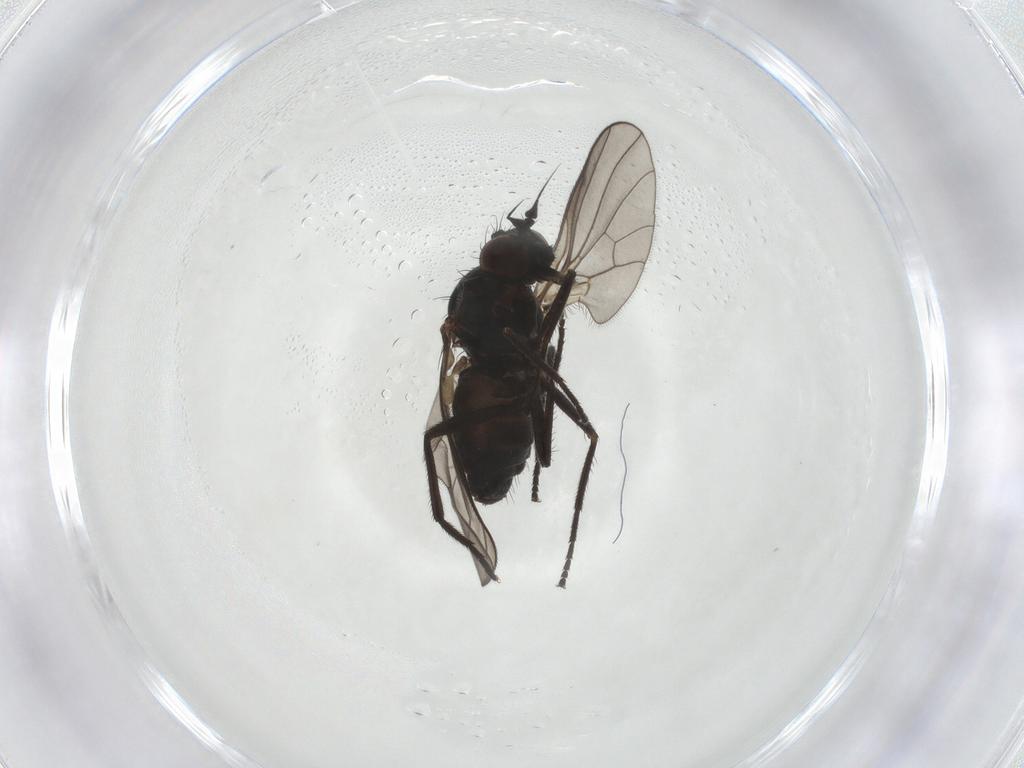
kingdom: Animalia
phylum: Arthropoda
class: Insecta
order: Diptera
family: Dolichopodidae
